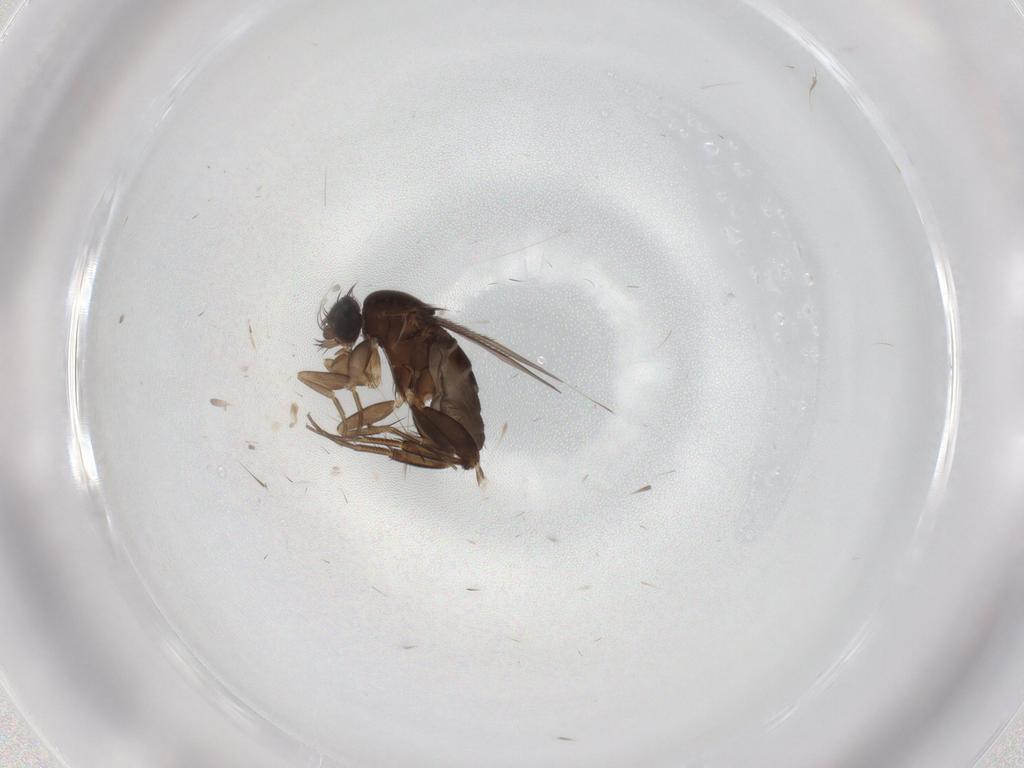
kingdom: Animalia
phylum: Arthropoda
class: Insecta
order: Diptera
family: Phoridae
